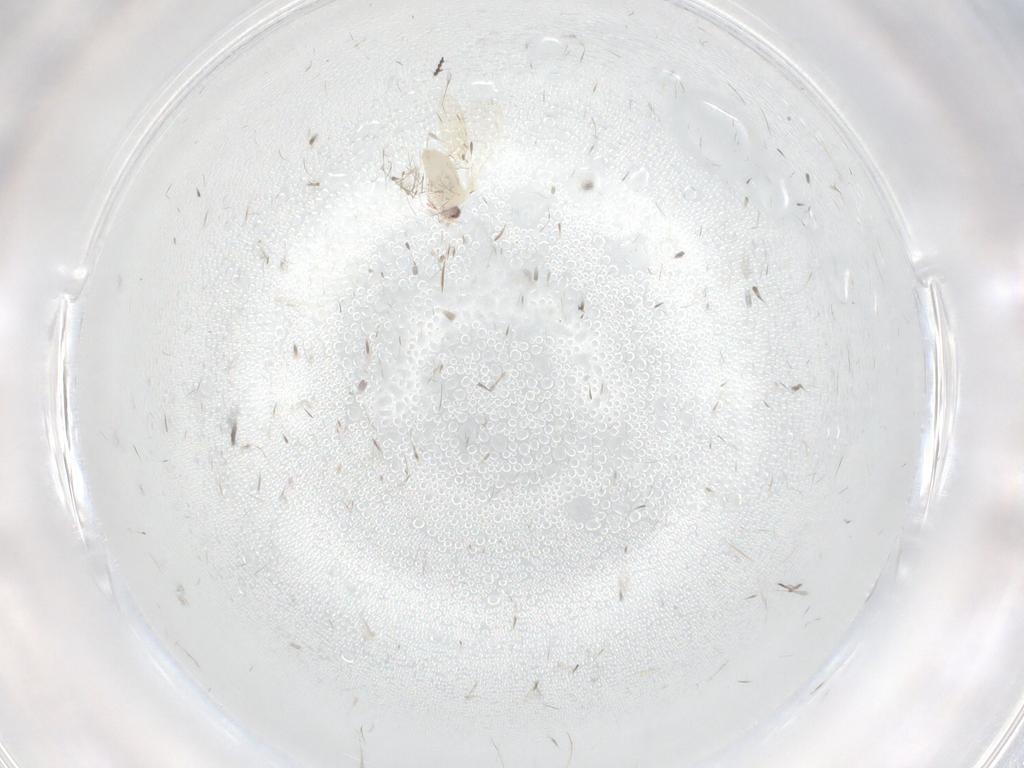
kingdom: Animalia
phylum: Arthropoda
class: Insecta
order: Diptera
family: Cecidomyiidae
